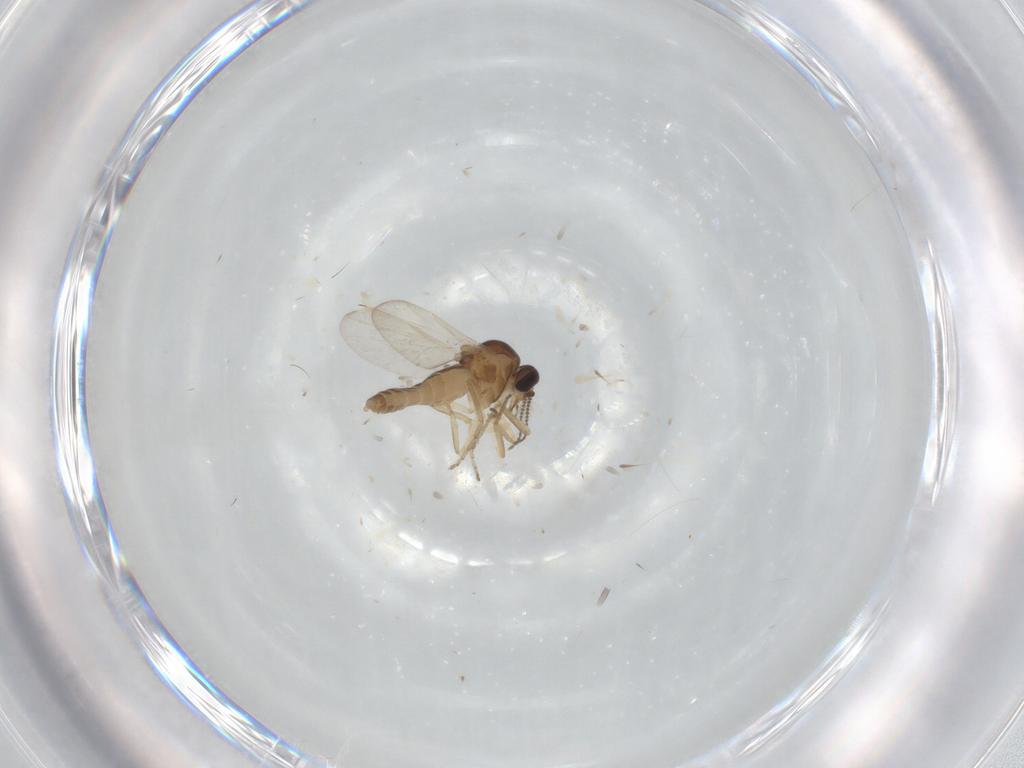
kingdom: Animalia
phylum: Arthropoda
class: Insecta
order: Diptera
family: Ceratopogonidae
